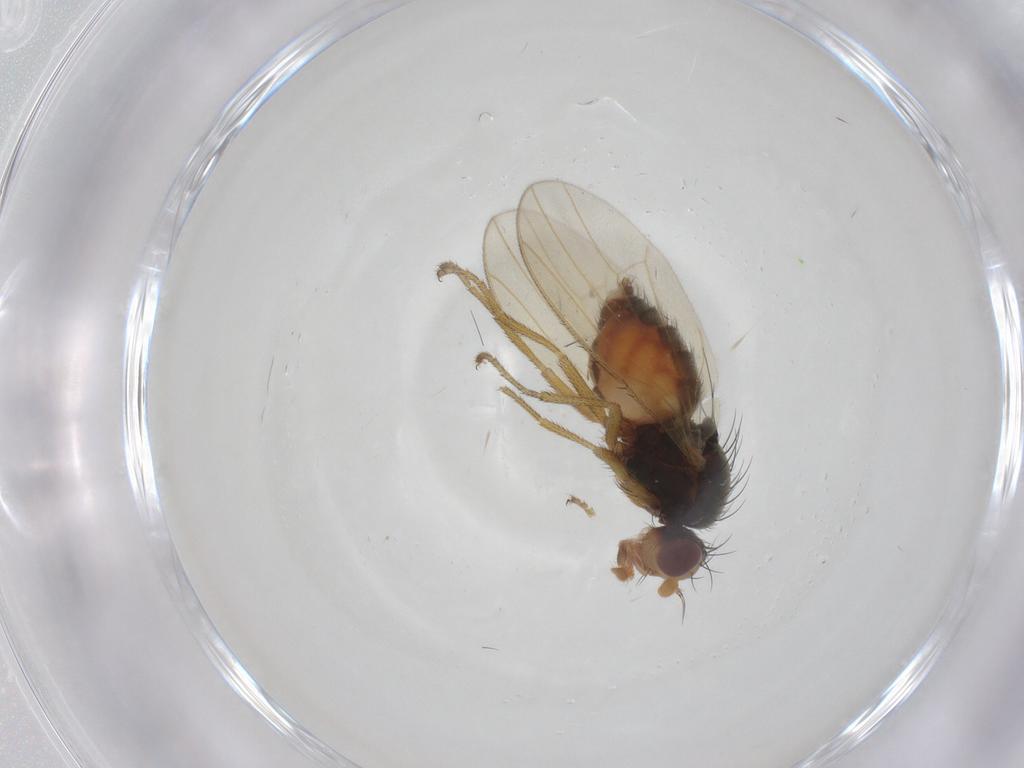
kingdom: Animalia
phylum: Arthropoda
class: Insecta
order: Diptera
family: Heleomyzidae
